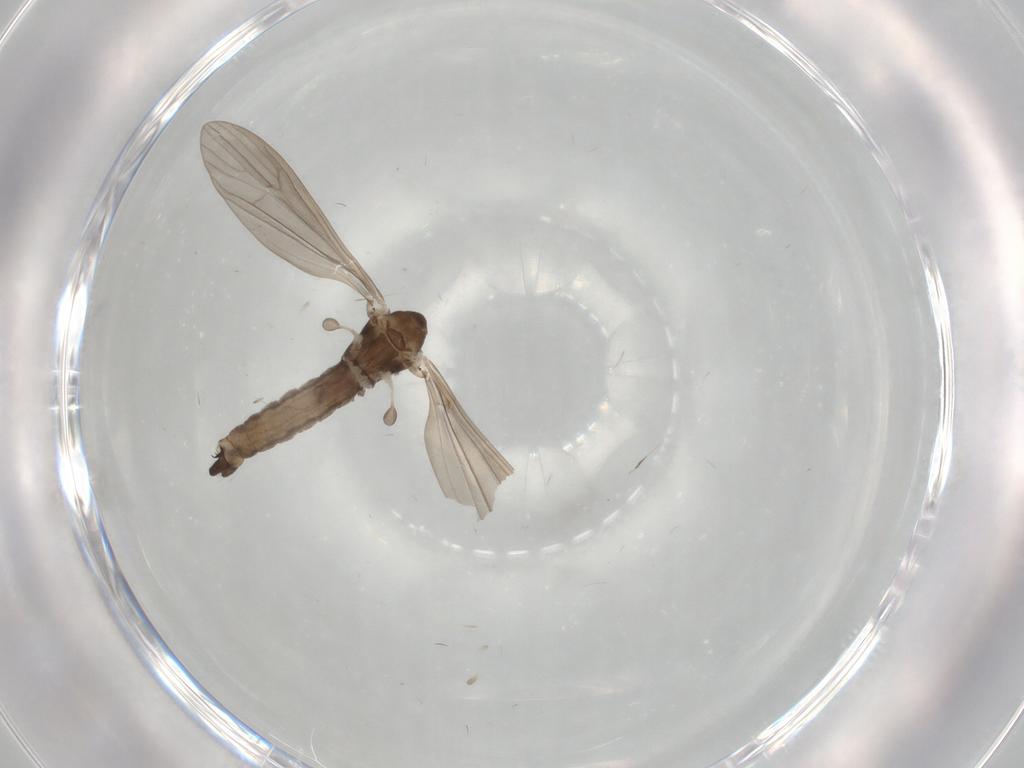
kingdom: Animalia
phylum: Arthropoda
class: Insecta
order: Diptera
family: Limoniidae
